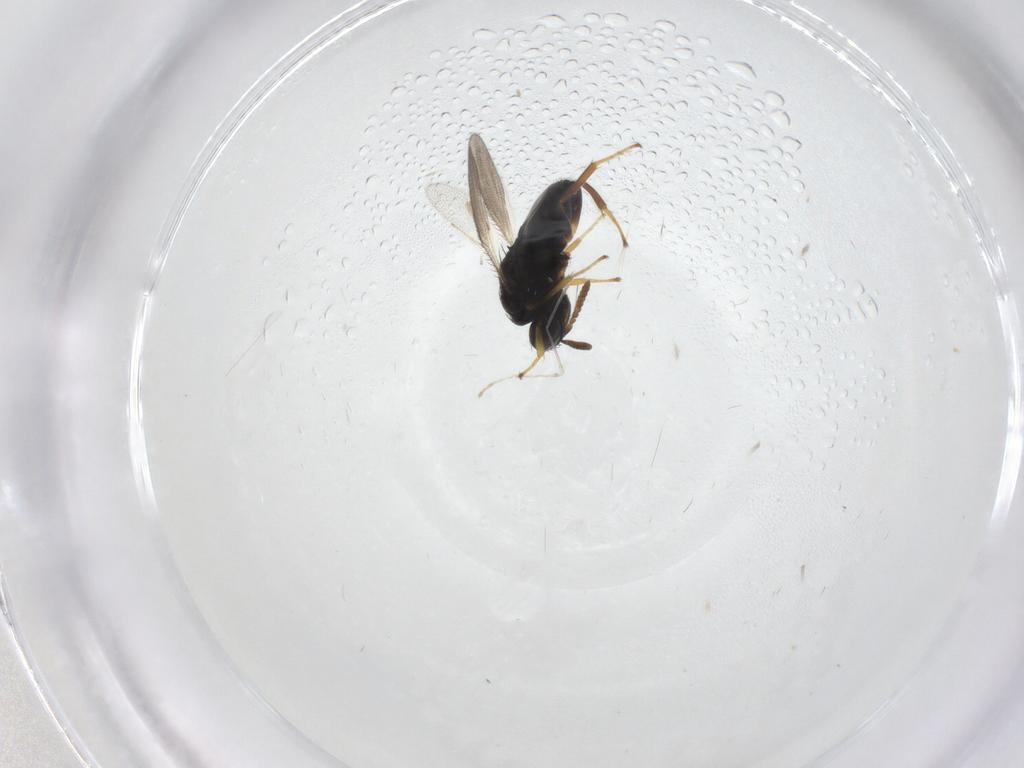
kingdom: Animalia
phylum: Arthropoda
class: Insecta
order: Hymenoptera
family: Pteromalidae
